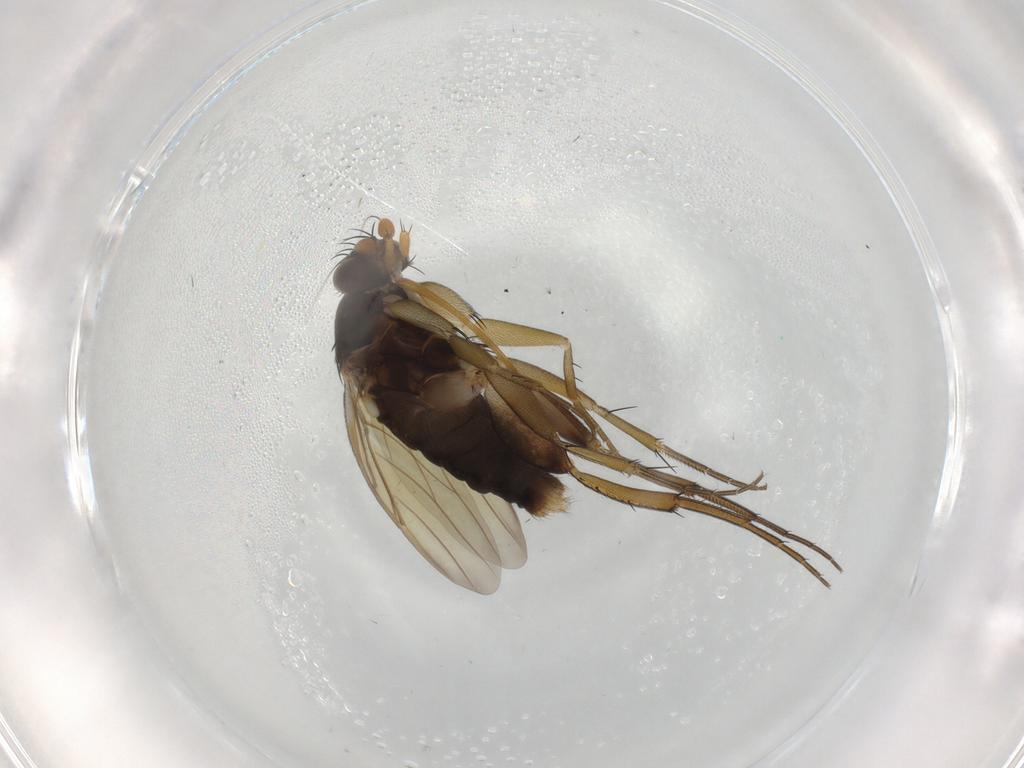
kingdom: Animalia
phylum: Arthropoda
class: Insecta
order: Diptera
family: Phoridae
